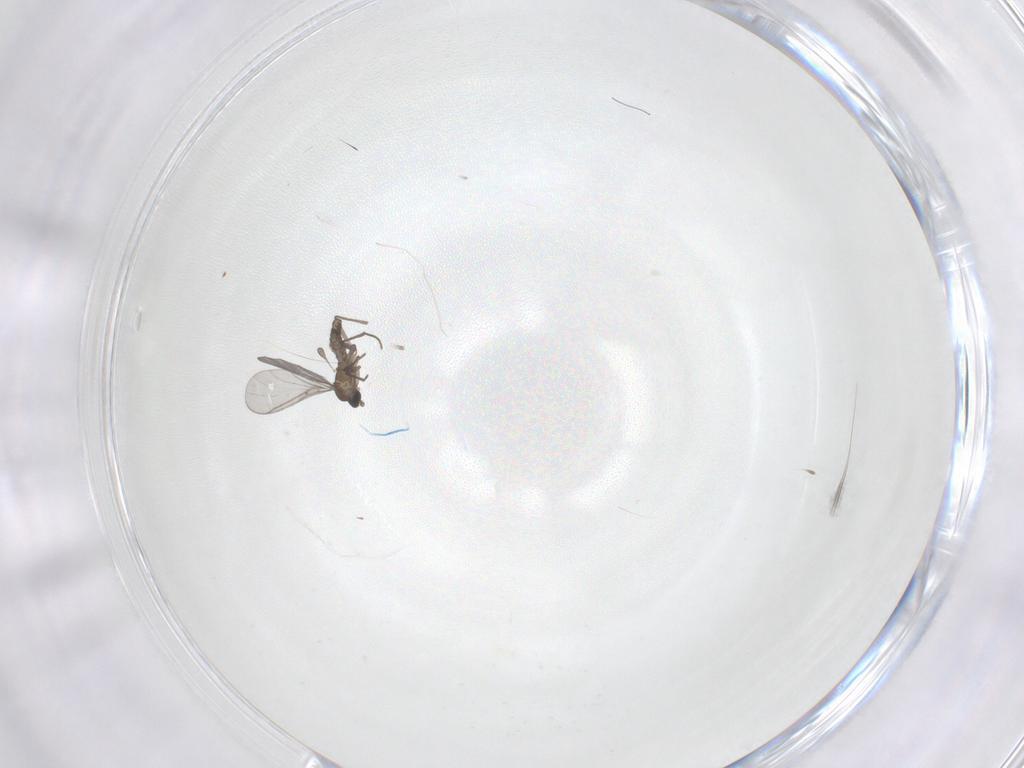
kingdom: Animalia
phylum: Arthropoda
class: Insecta
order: Diptera
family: Sciaridae
